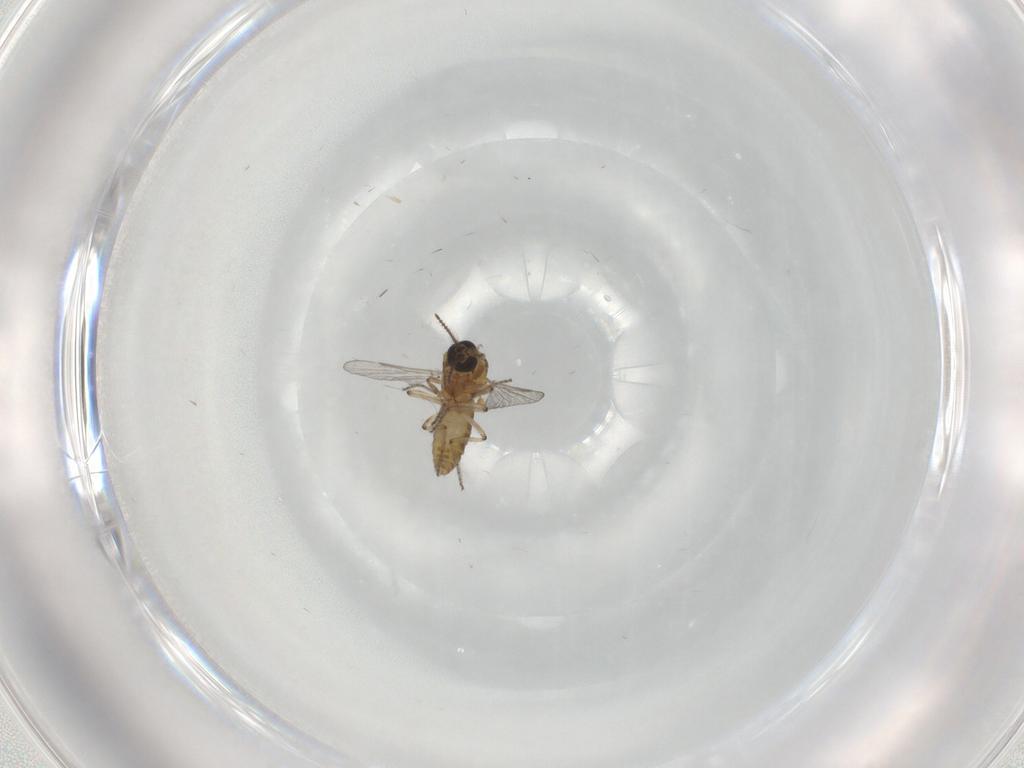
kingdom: Animalia
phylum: Arthropoda
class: Insecta
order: Diptera
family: Ceratopogonidae
